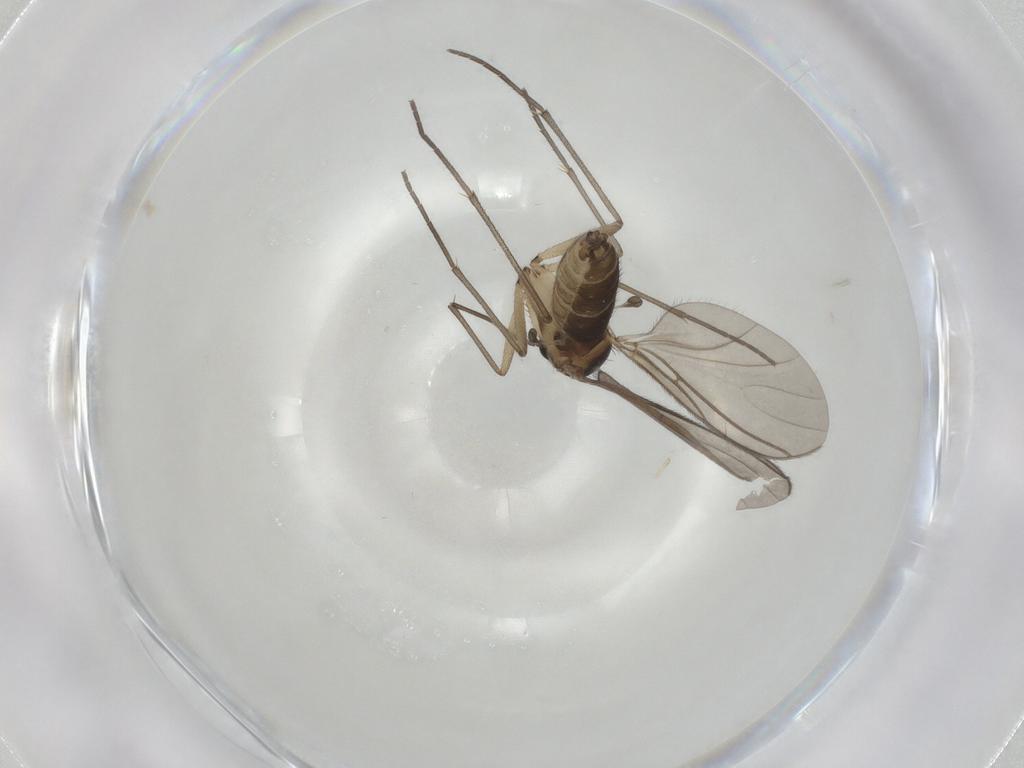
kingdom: Animalia
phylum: Arthropoda
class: Insecta
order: Diptera
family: Sciaridae
